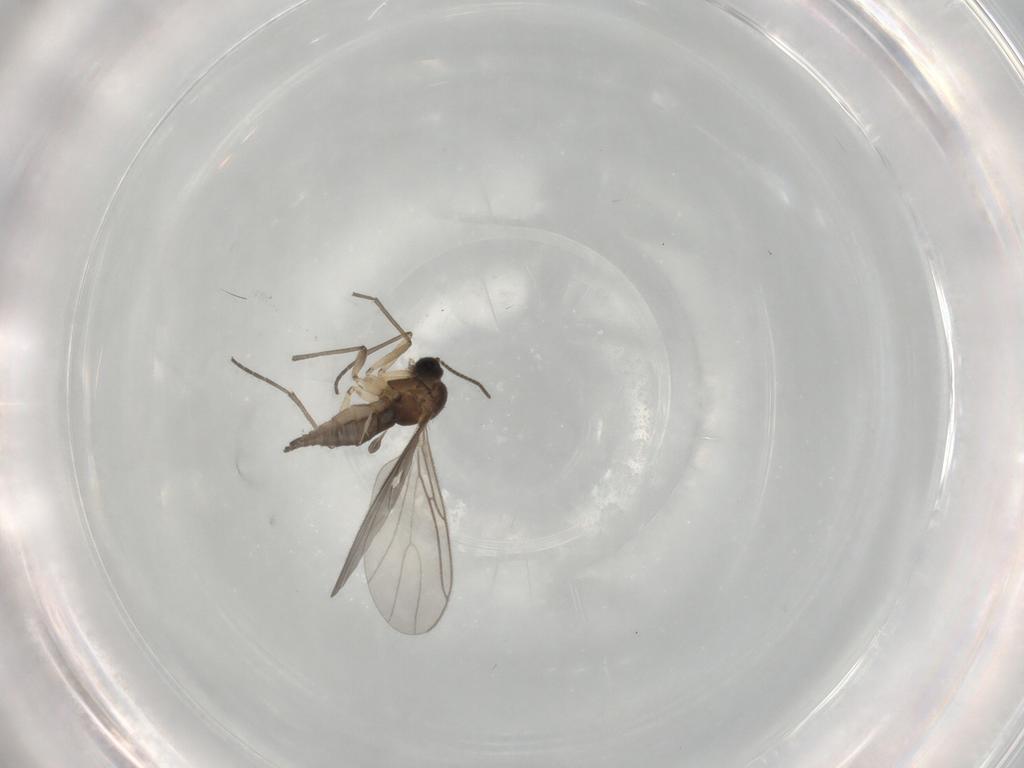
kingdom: Animalia
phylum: Arthropoda
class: Insecta
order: Diptera
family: Sciaridae
